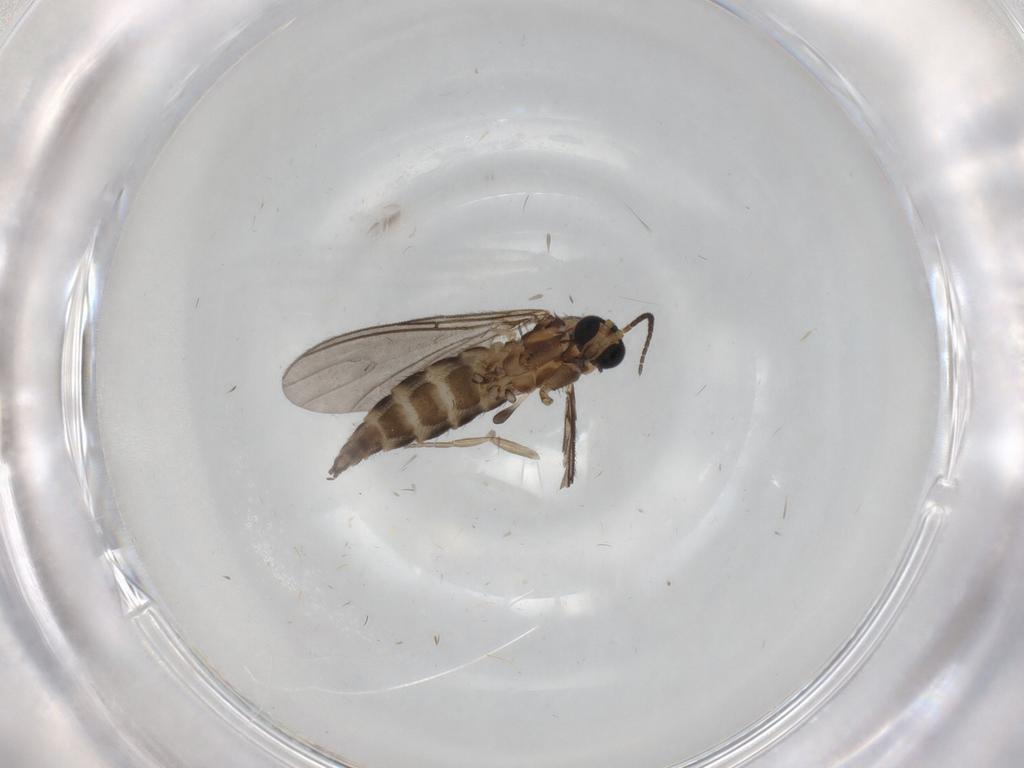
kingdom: Animalia
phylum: Arthropoda
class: Insecta
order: Diptera
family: Sciaridae
